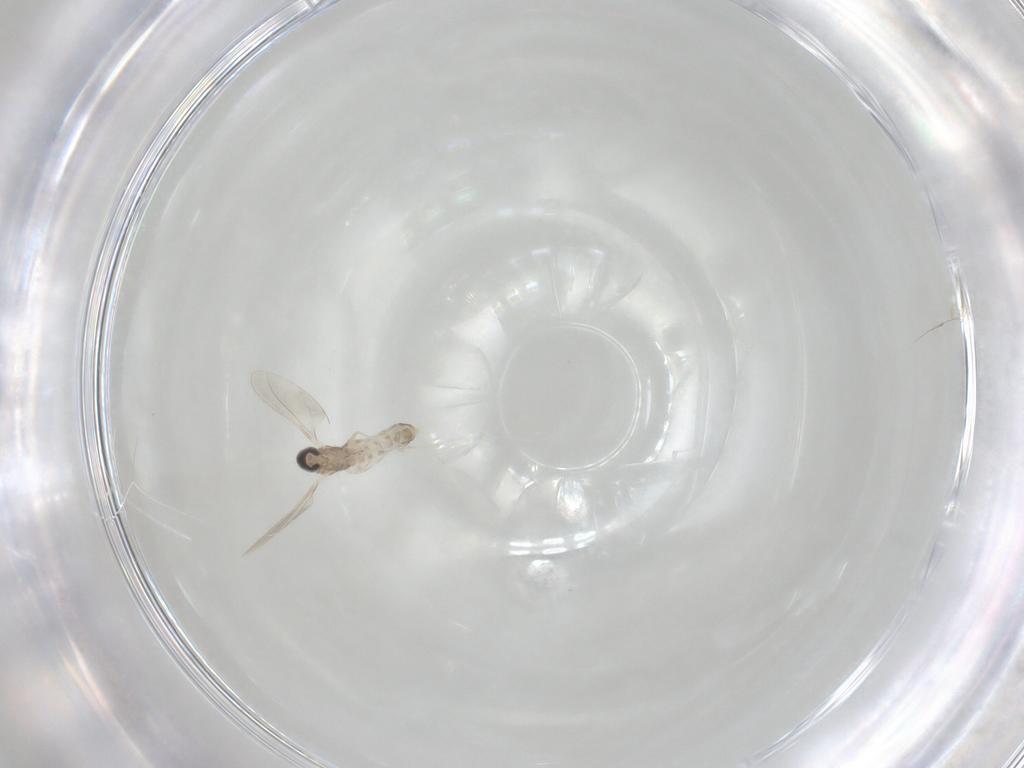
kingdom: Animalia
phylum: Arthropoda
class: Insecta
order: Diptera
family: Cecidomyiidae
